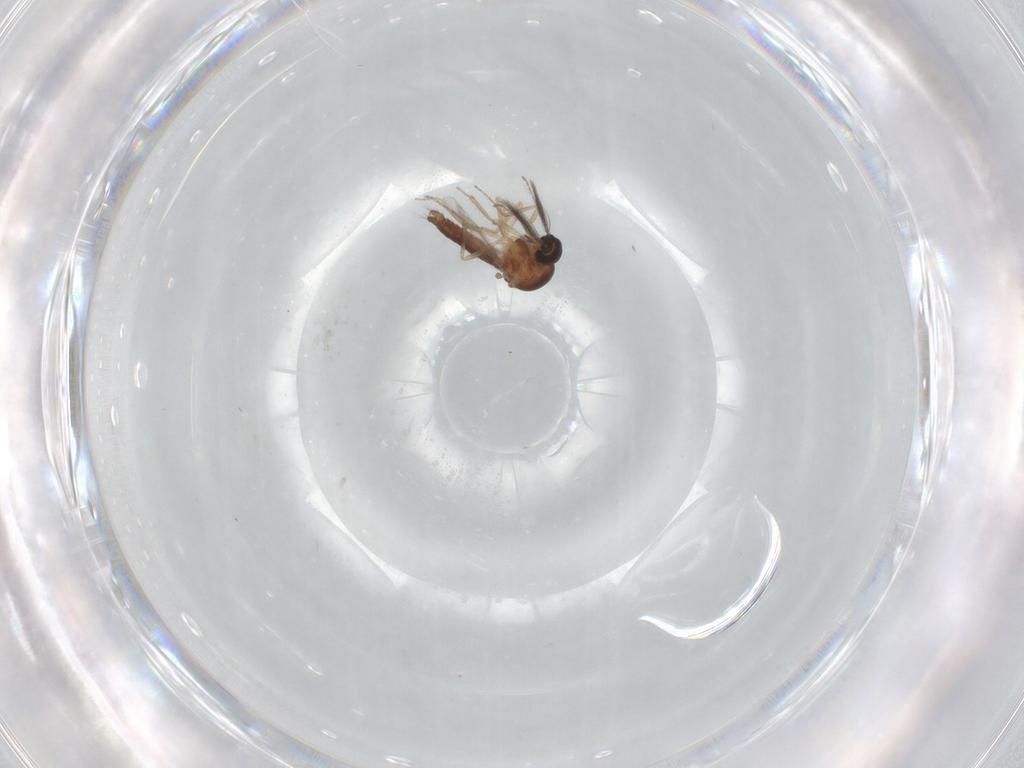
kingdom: Animalia
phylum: Arthropoda
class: Insecta
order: Diptera
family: Ceratopogonidae
